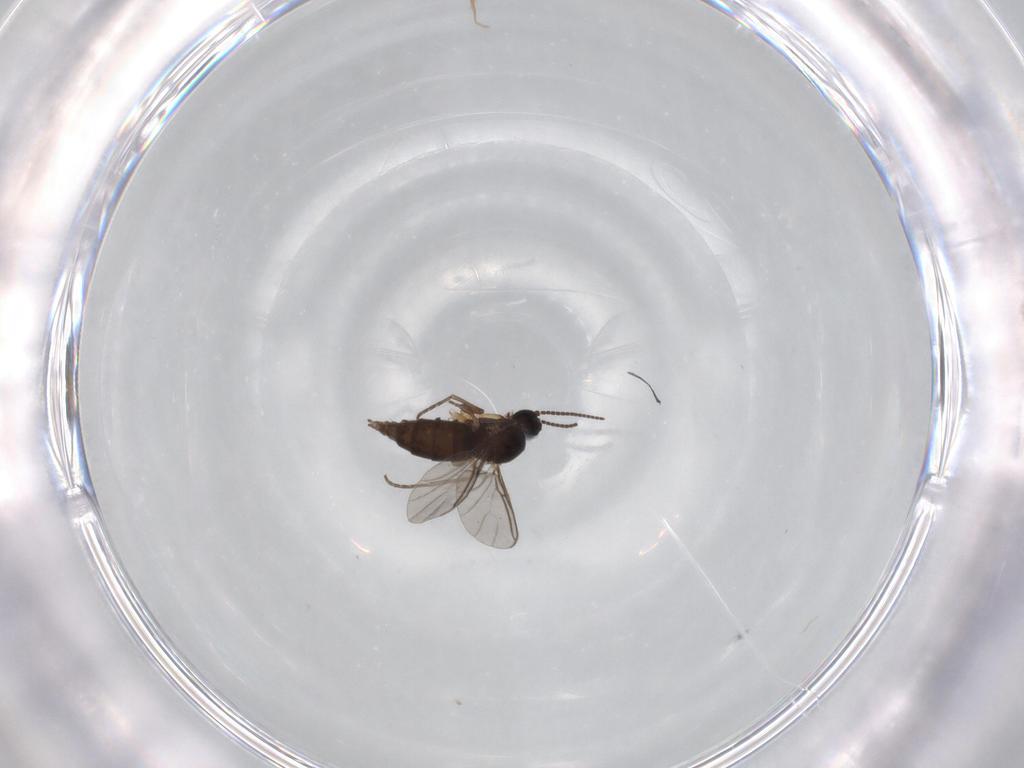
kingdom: Animalia
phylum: Arthropoda
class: Insecta
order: Diptera
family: Sciaridae
